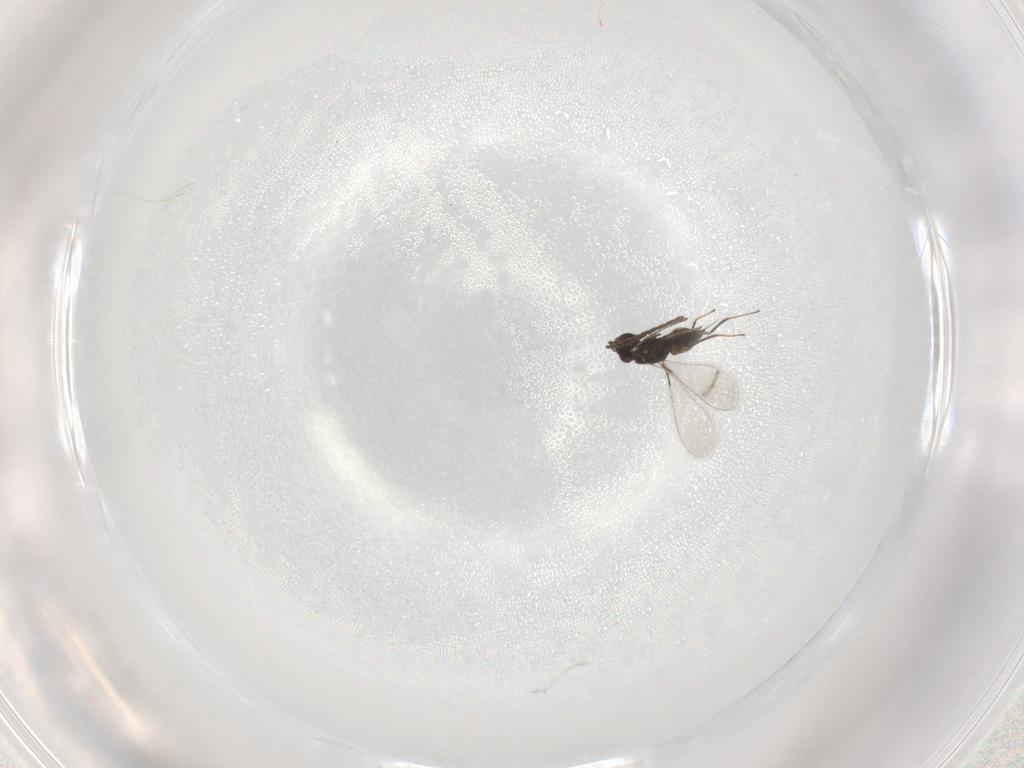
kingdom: Animalia
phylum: Arthropoda
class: Insecta
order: Hymenoptera
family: Mymaridae
